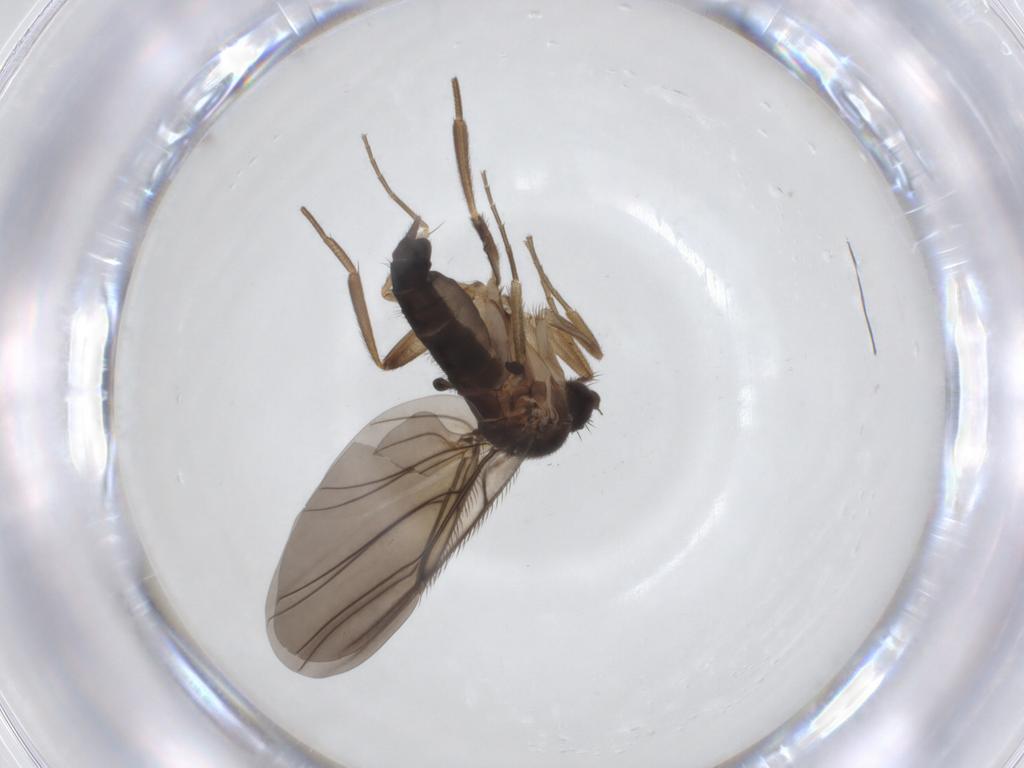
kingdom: Animalia
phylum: Arthropoda
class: Insecta
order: Diptera
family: Phoridae
